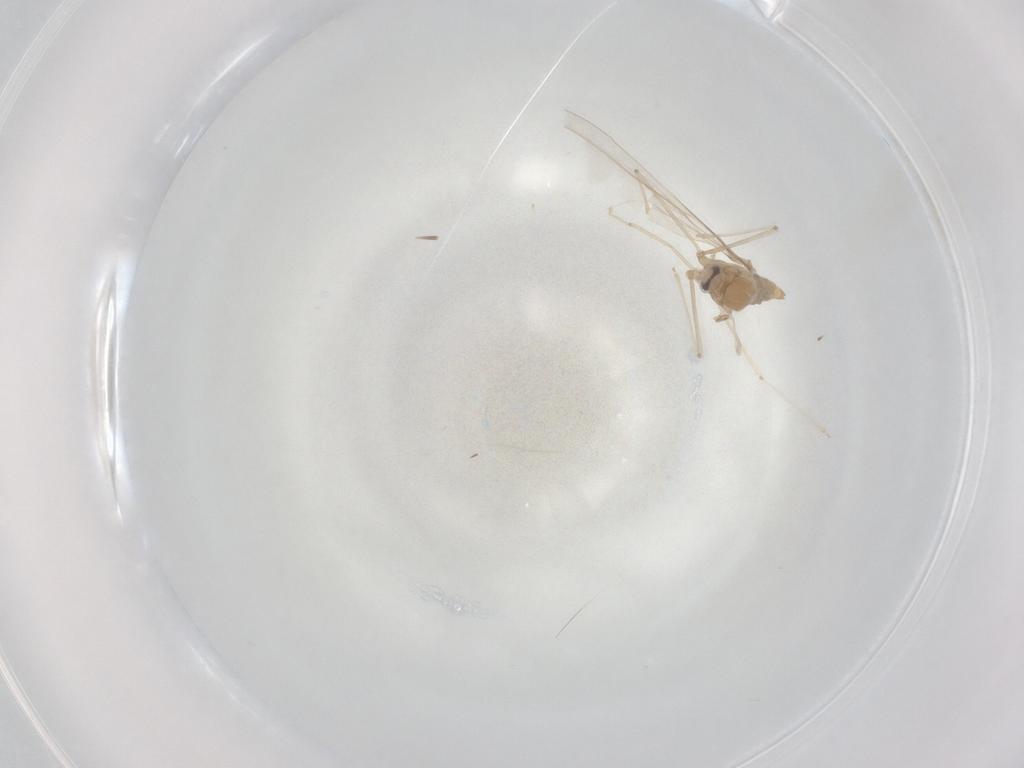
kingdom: Animalia
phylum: Arthropoda
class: Insecta
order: Diptera
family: Cecidomyiidae
